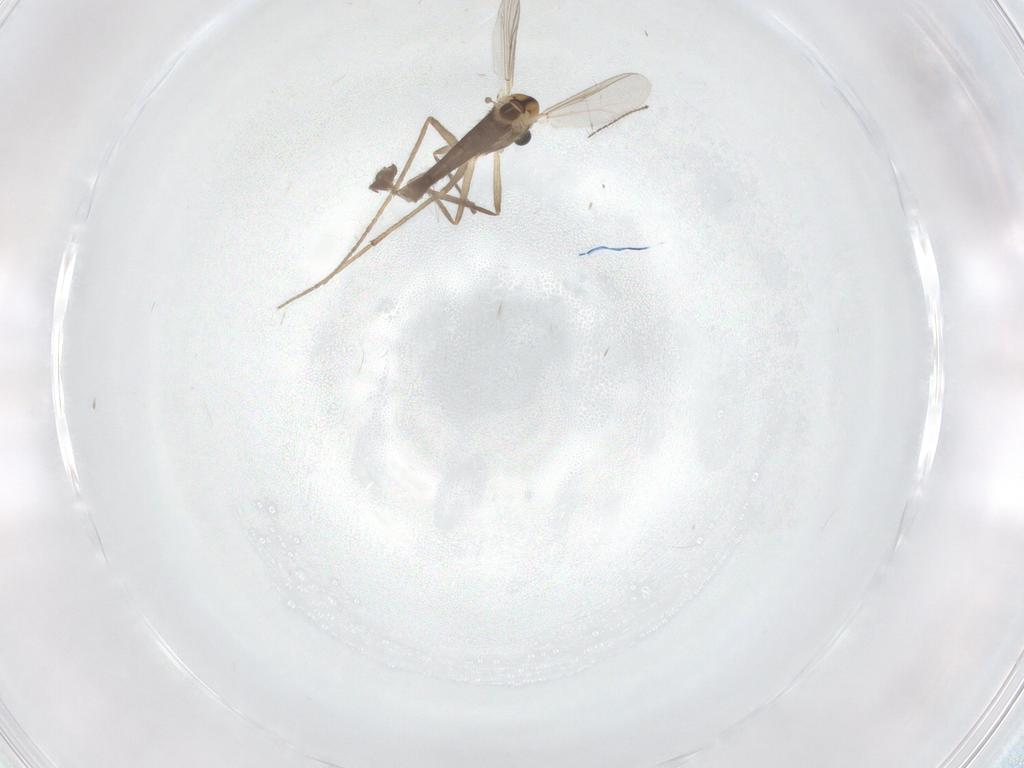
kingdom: Animalia
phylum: Arthropoda
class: Insecta
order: Diptera
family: Chironomidae
